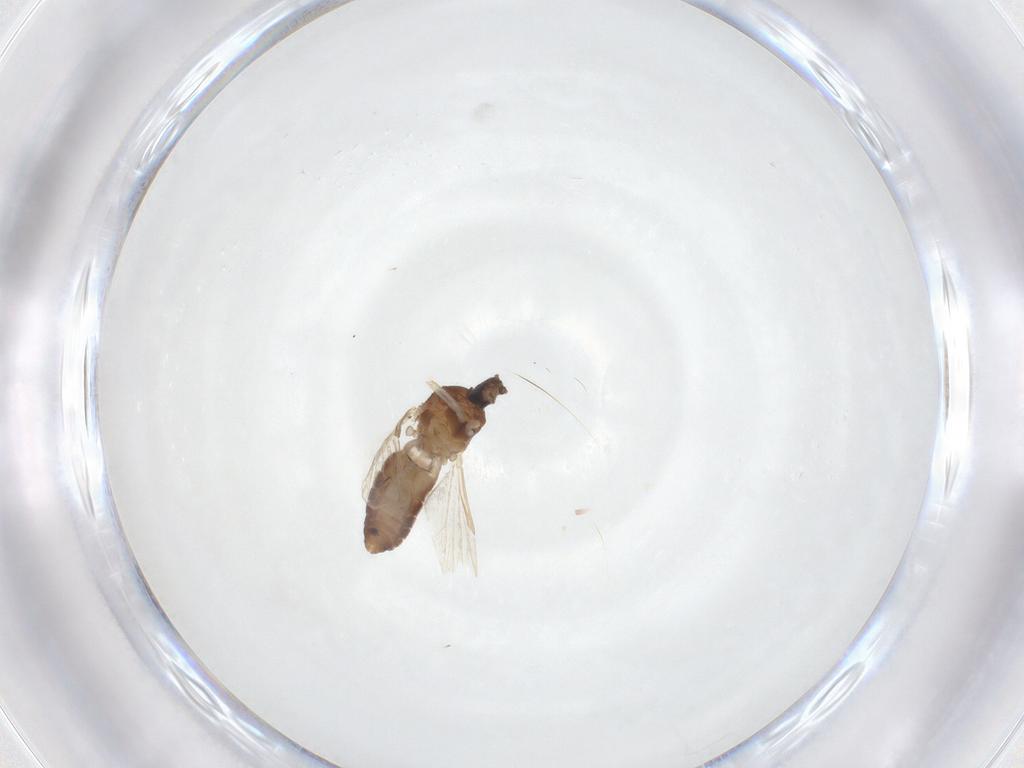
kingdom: Animalia
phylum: Arthropoda
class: Insecta
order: Diptera
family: Ceratopogonidae
